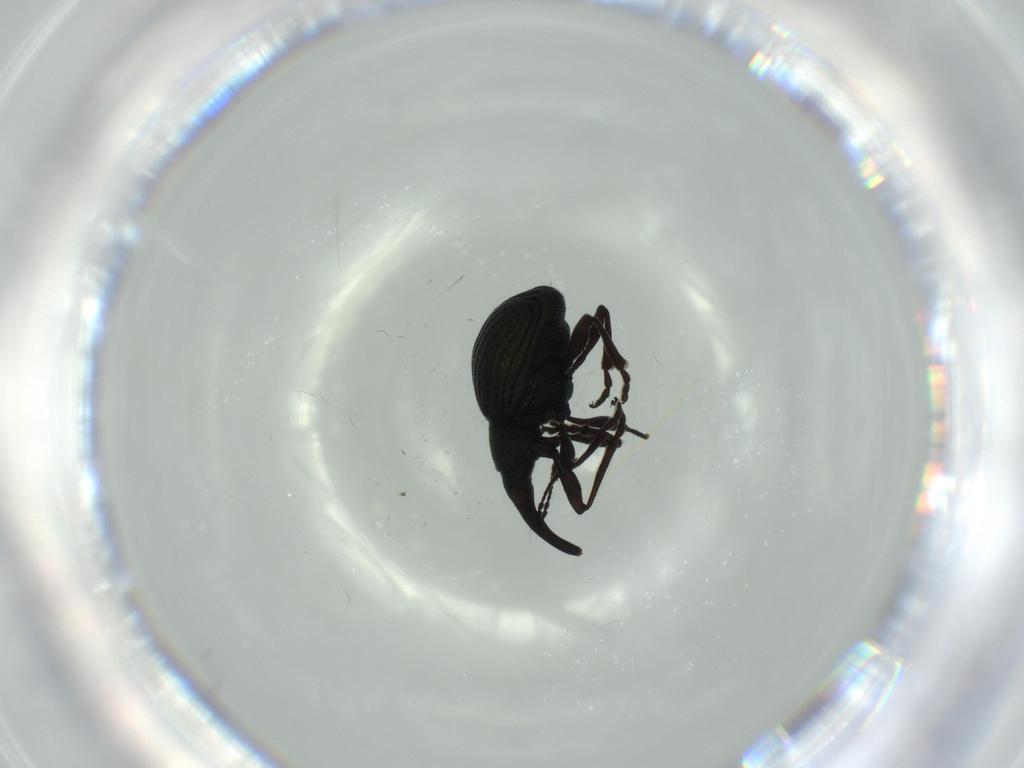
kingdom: Animalia
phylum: Arthropoda
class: Insecta
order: Coleoptera
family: Brentidae
